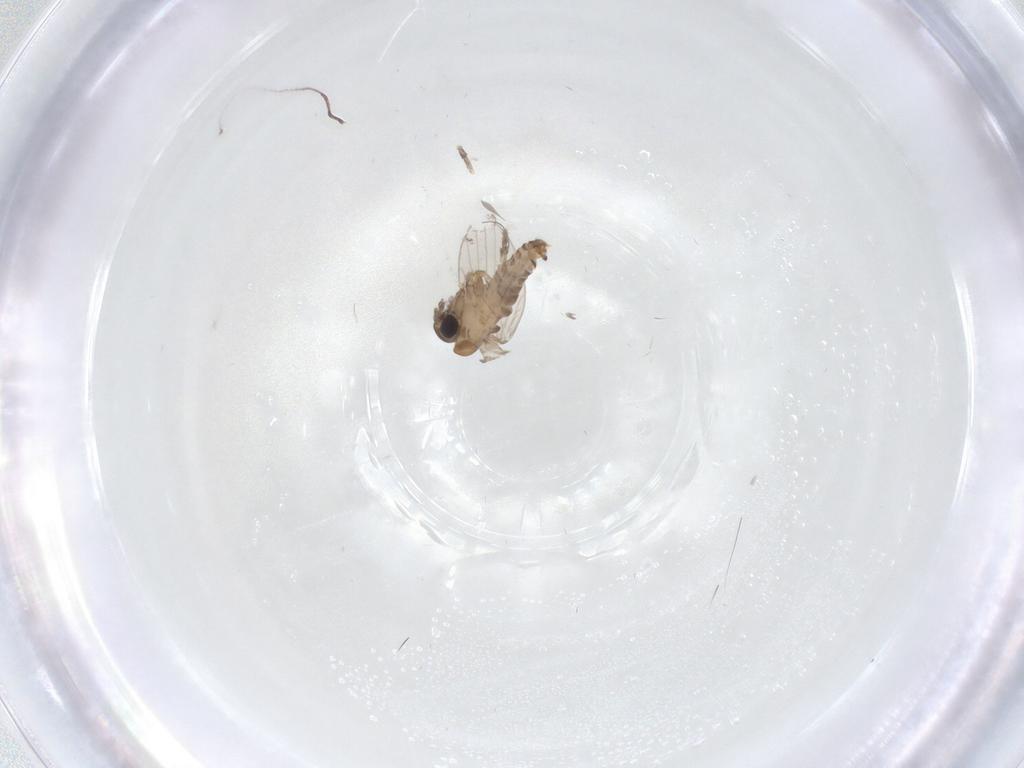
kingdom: Animalia
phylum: Arthropoda
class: Insecta
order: Diptera
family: Psychodidae
